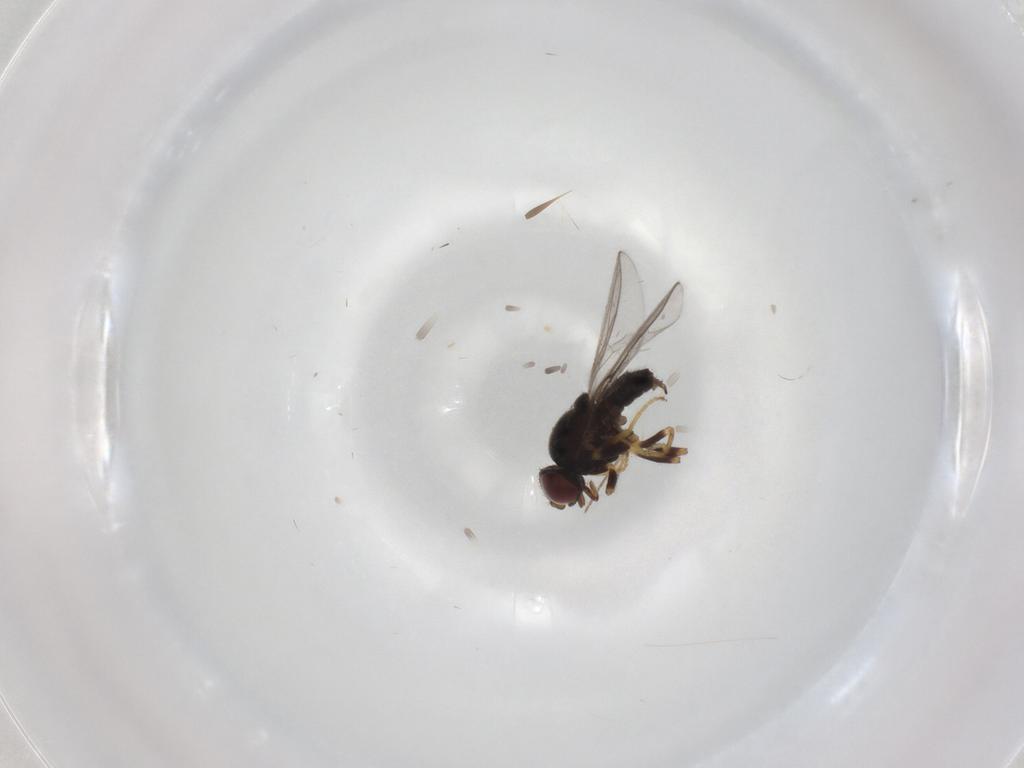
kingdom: Animalia
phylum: Arthropoda
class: Insecta
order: Diptera
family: Chloropidae
